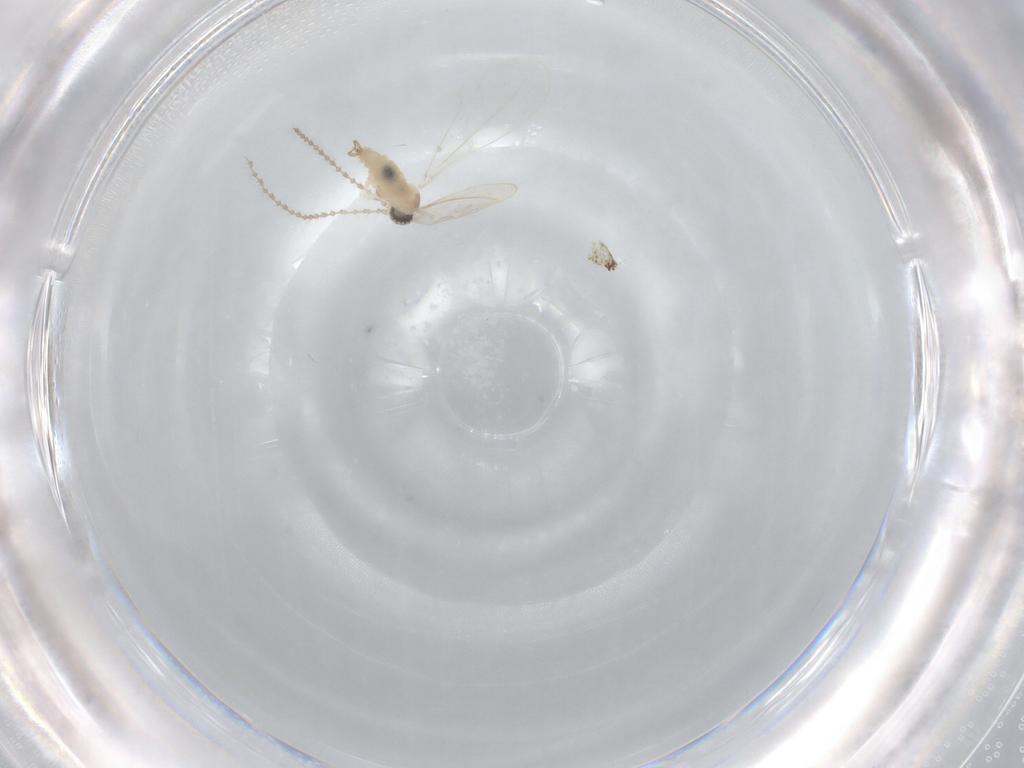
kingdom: Animalia
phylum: Arthropoda
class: Insecta
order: Diptera
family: Cecidomyiidae
